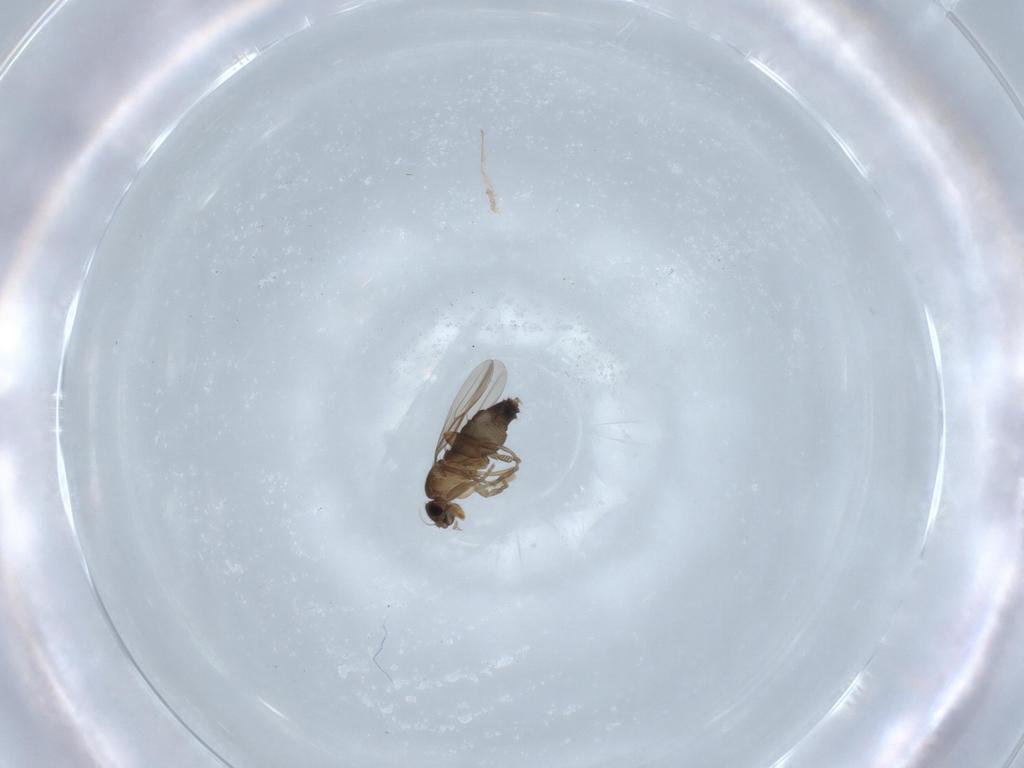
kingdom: Animalia
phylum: Arthropoda
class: Insecta
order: Diptera
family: Phoridae
